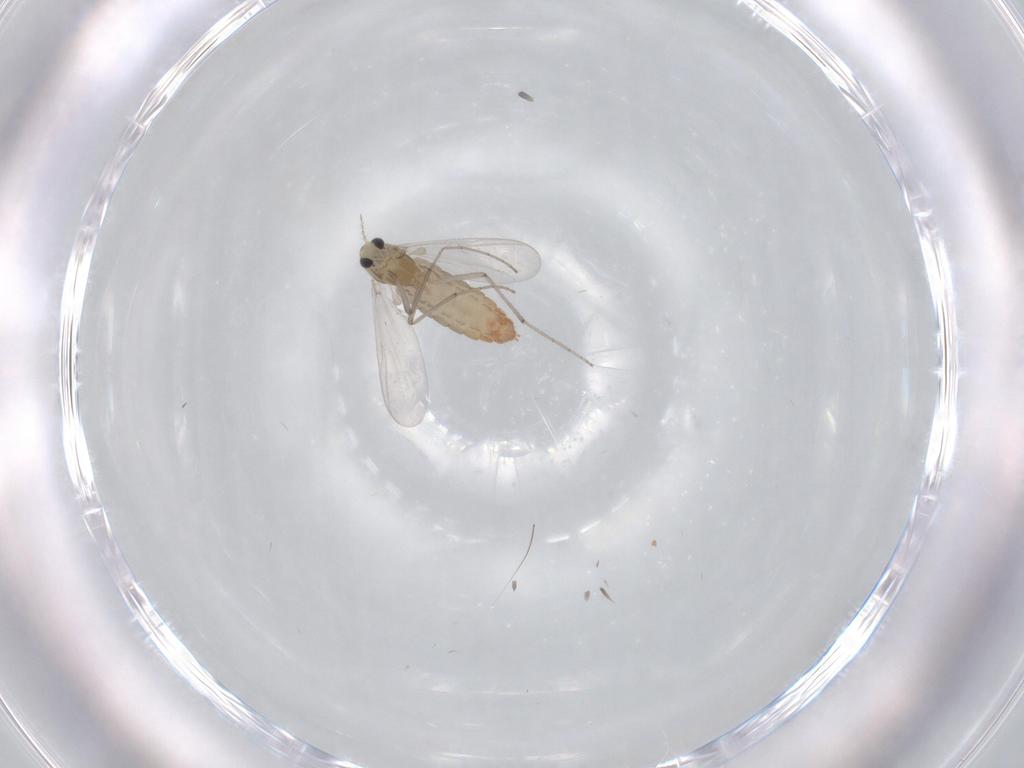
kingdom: Animalia
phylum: Arthropoda
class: Insecta
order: Diptera
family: Chironomidae
